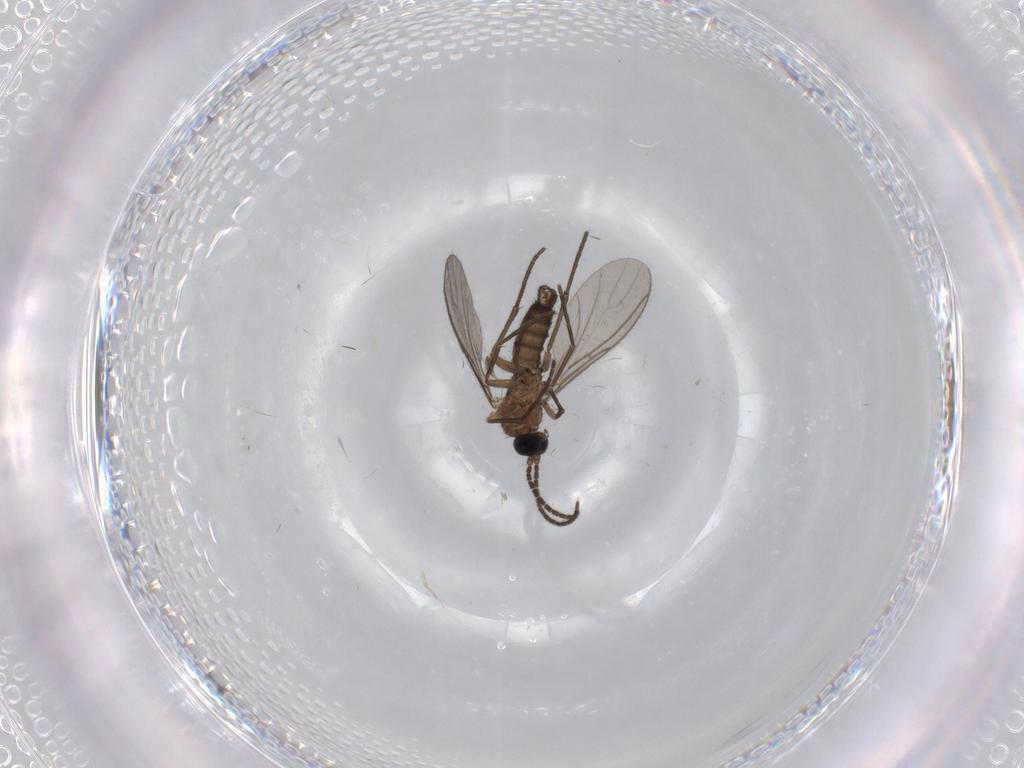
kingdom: Animalia
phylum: Arthropoda
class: Insecta
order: Diptera
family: Sciaridae
